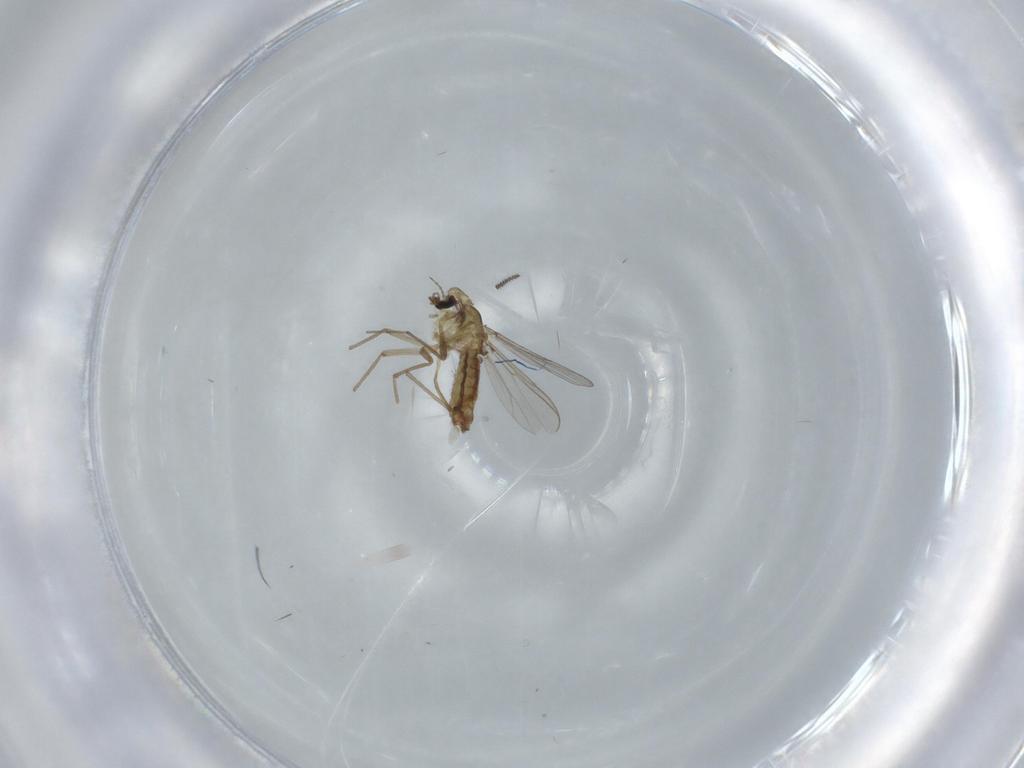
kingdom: Animalia
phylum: Arthropoda
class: Insecta
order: Diptera
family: Chironomidae
